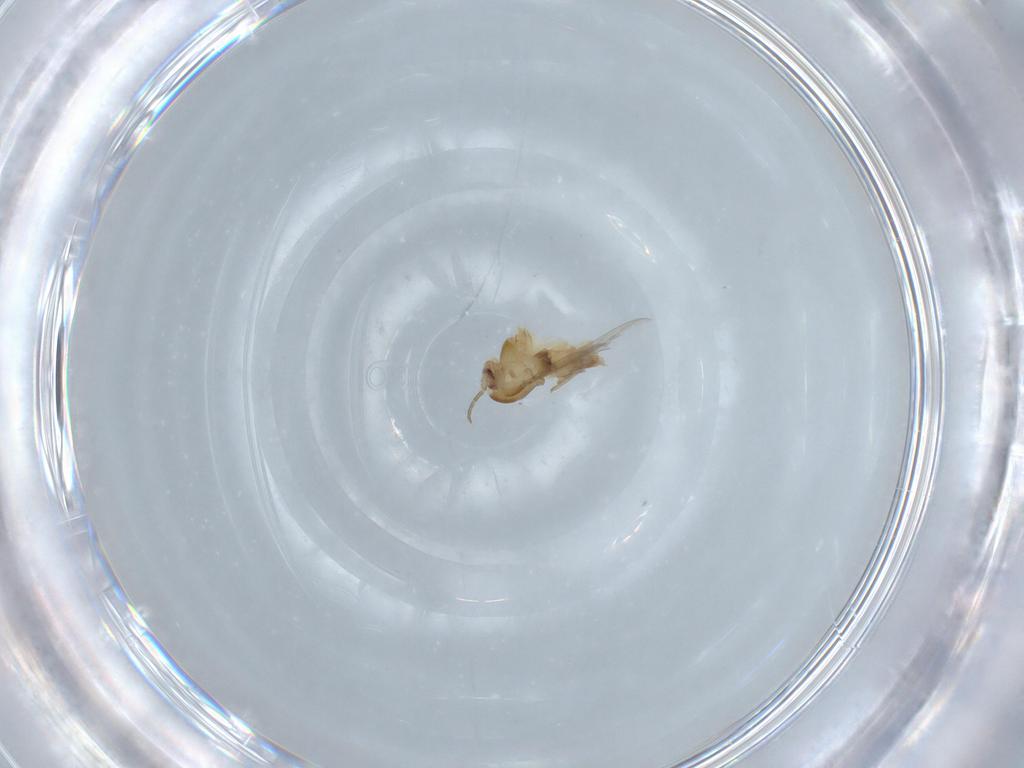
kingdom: Animalia
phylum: Arthropoda
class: Insecta
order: Diptera
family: Chironomidae
